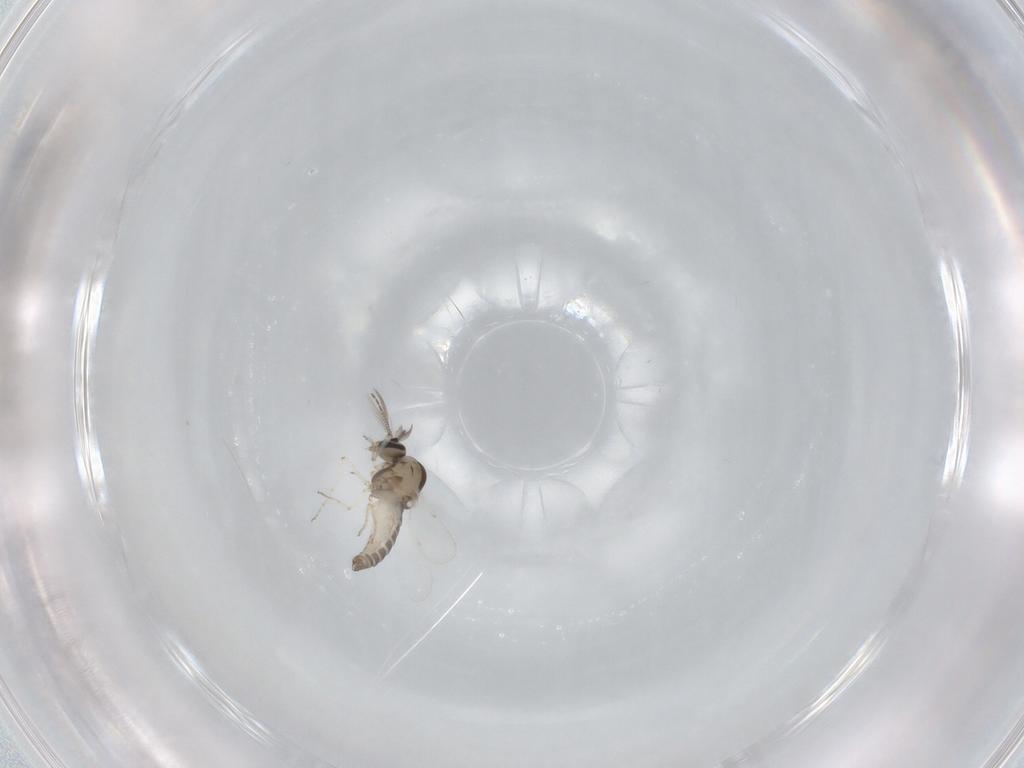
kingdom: Animalia
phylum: Arthropoda
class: Insecta
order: Diptera
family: Ceratopogonidae
